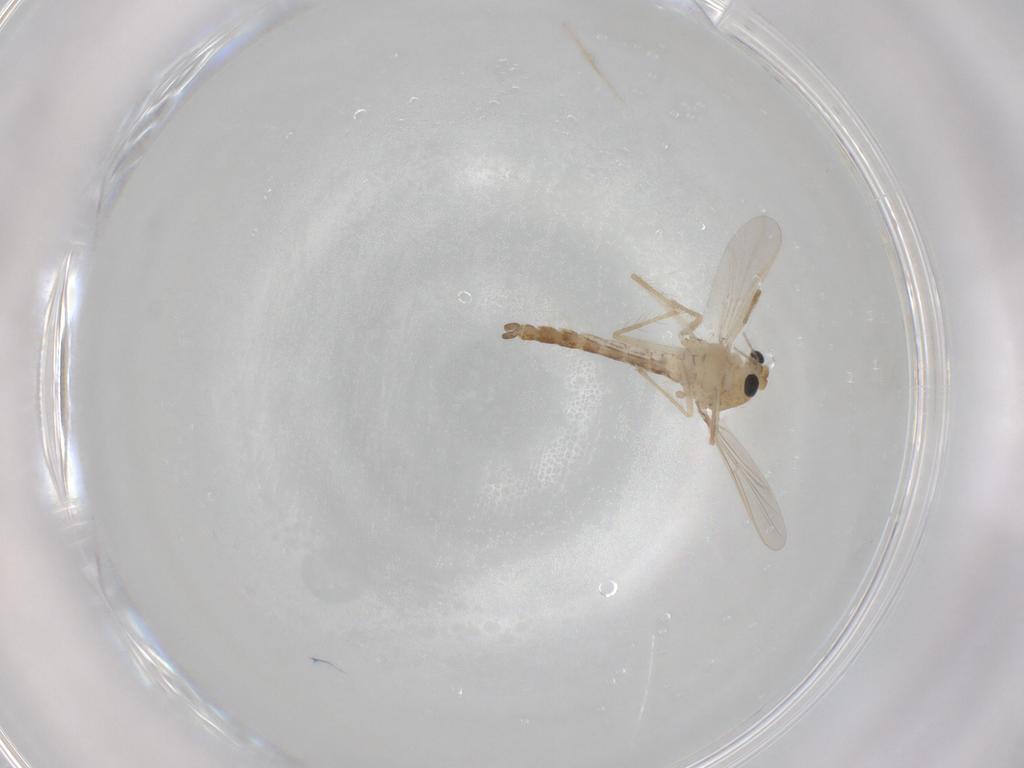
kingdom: Animalia
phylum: Arthropoda
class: Insecta
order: Diptera
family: Chironomidae
